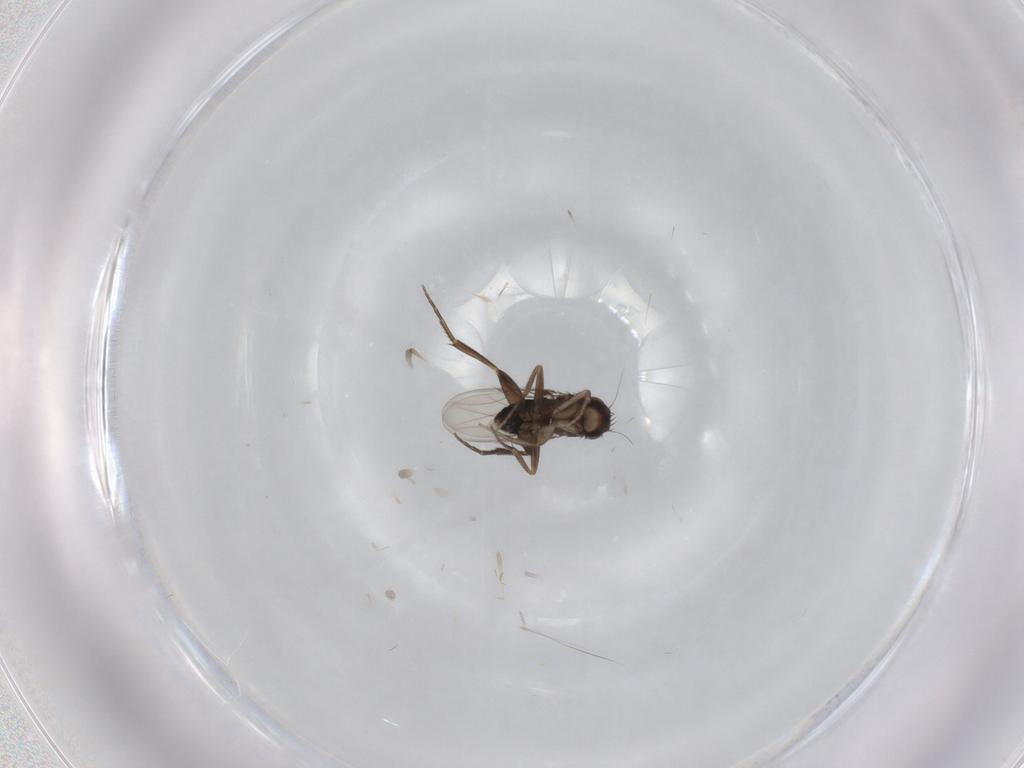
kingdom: Animalia
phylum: Arthropoda
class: Insecta
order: Diptera
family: Phoridae
